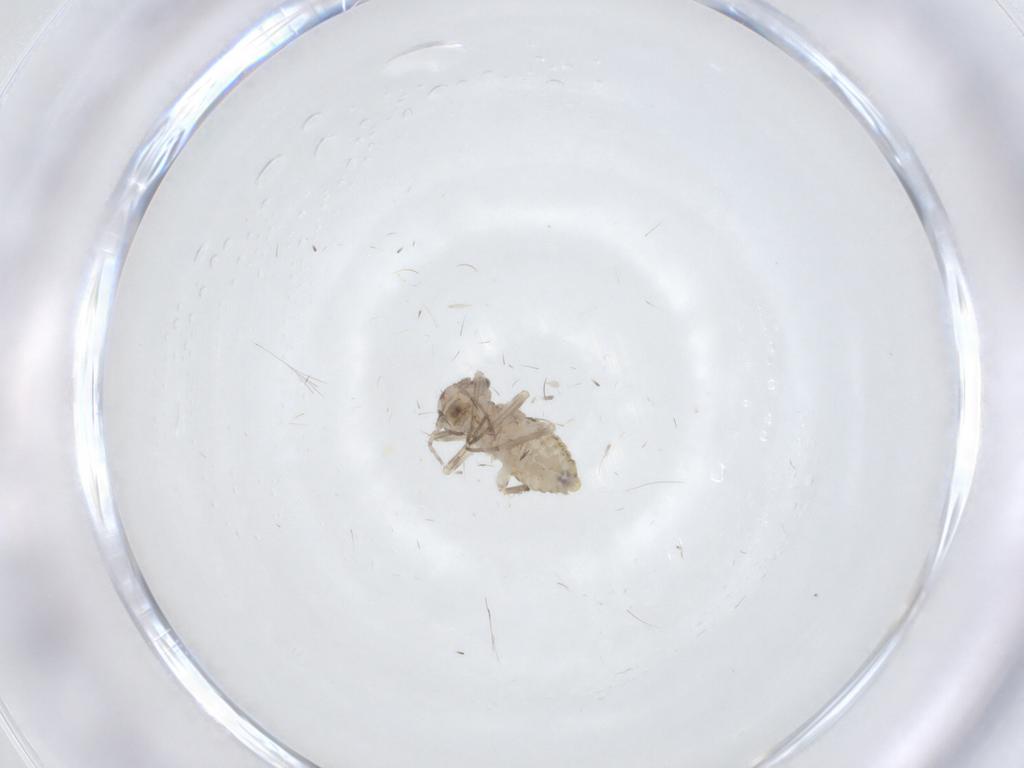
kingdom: Animalia
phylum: Arthropoda
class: Insecta
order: Diptera
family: Sciaridae
